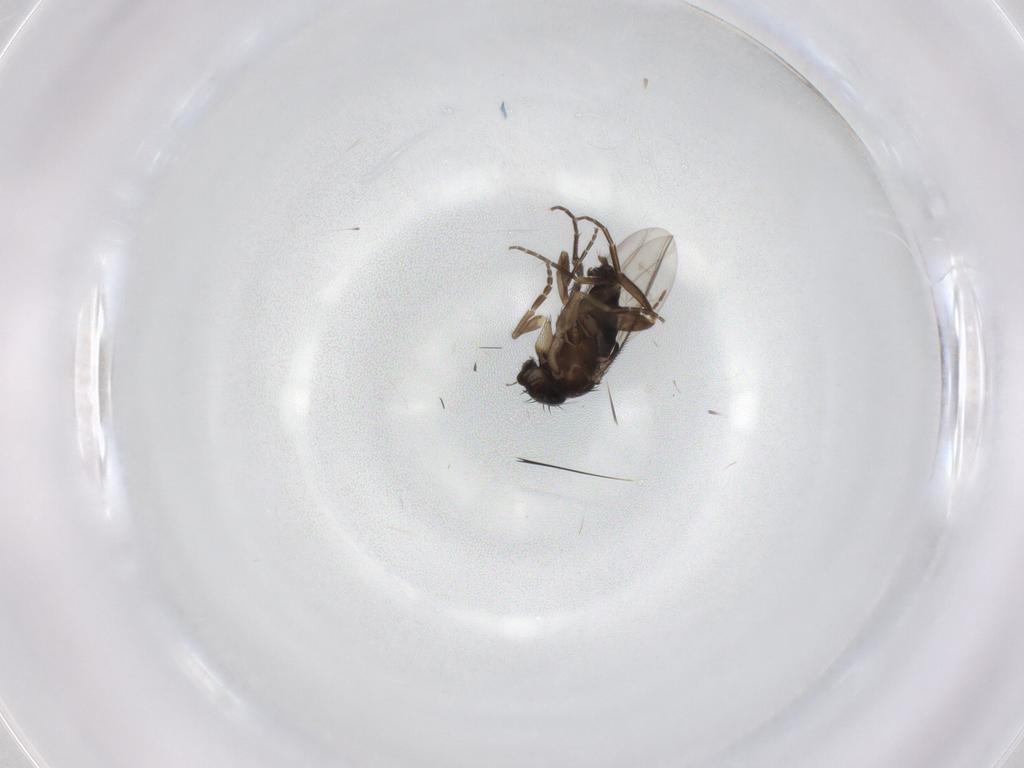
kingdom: Animalia
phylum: Arthropoda
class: Insecta
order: Diptera
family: Phoridae
